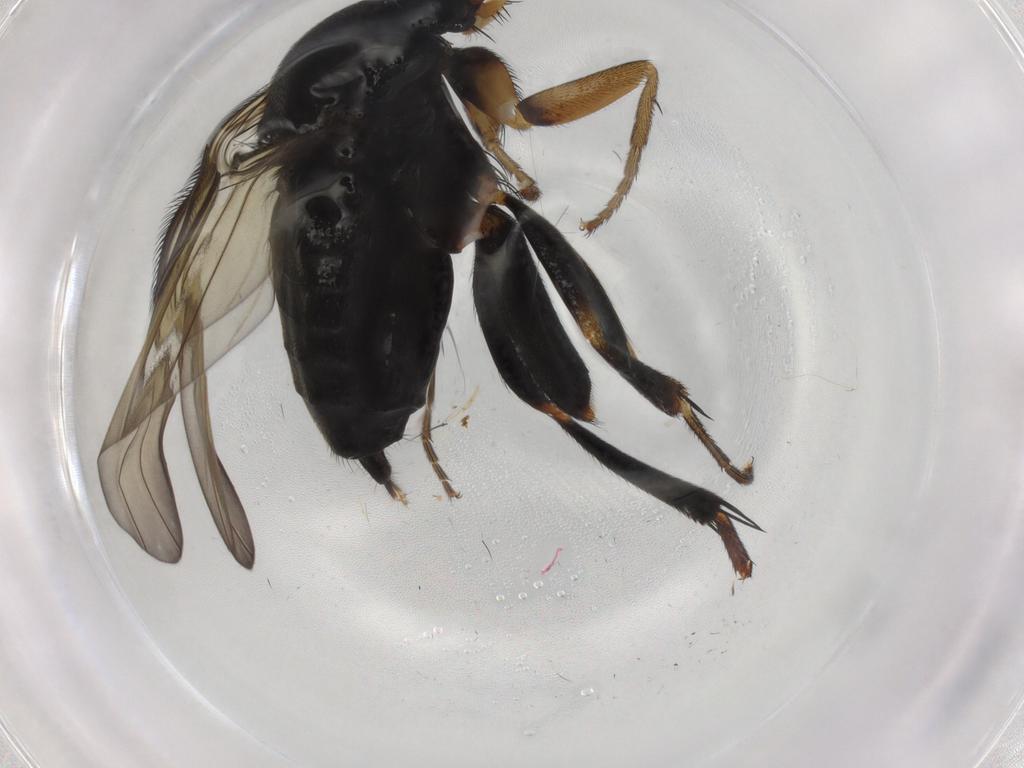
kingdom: Animalia
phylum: Arthropoda
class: Insecta
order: Diptera
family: Phoridae
